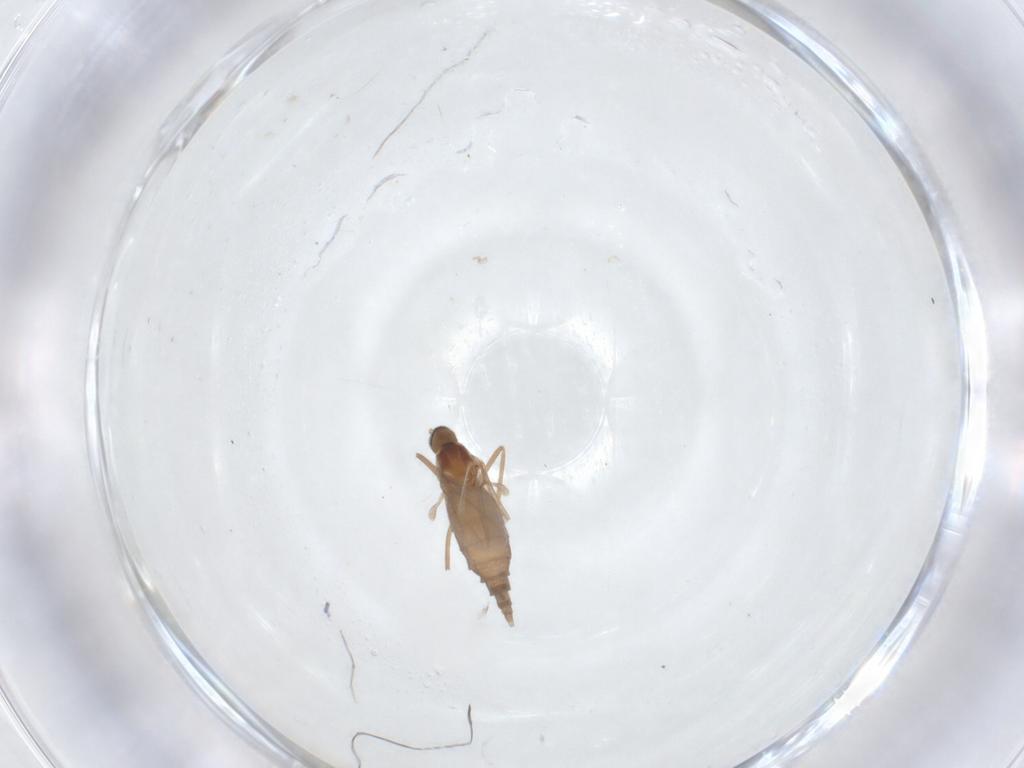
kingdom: Animalia
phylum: Arthropoda
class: Insecta
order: Diptera
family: Cecidomyiidae
